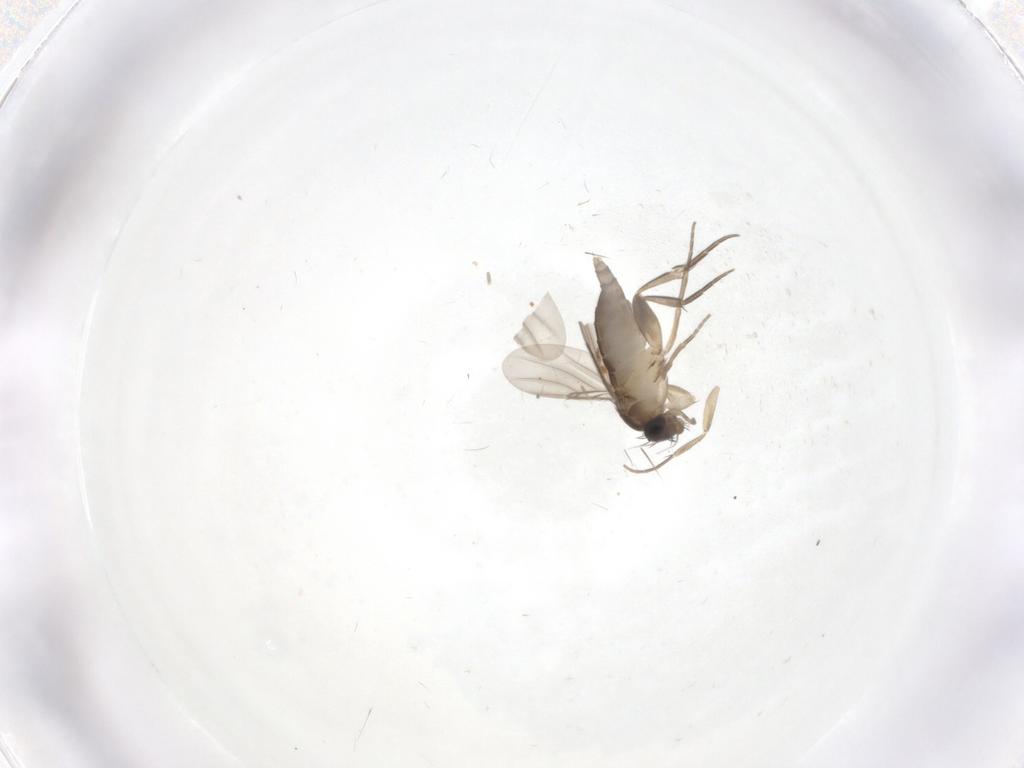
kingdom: Animalia
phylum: Arthropoda
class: Insecta
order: Diptera
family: Phoridae
